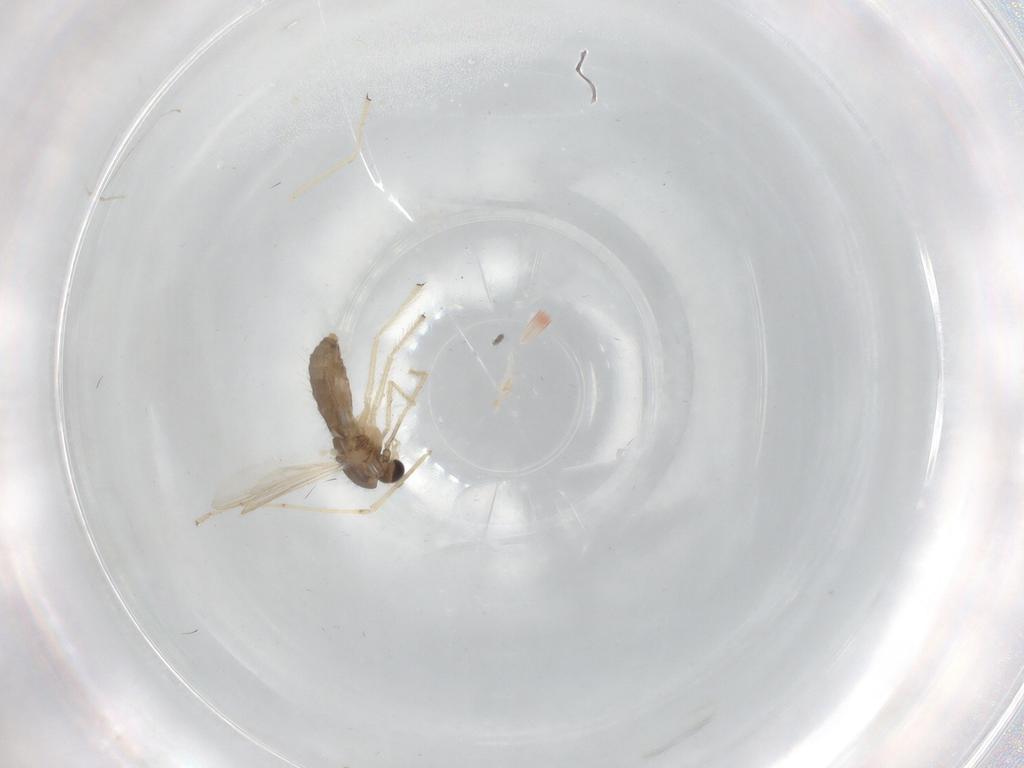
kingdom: Animalia
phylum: Arthropoda
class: Insecta
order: Diptera
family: Chironomidae
